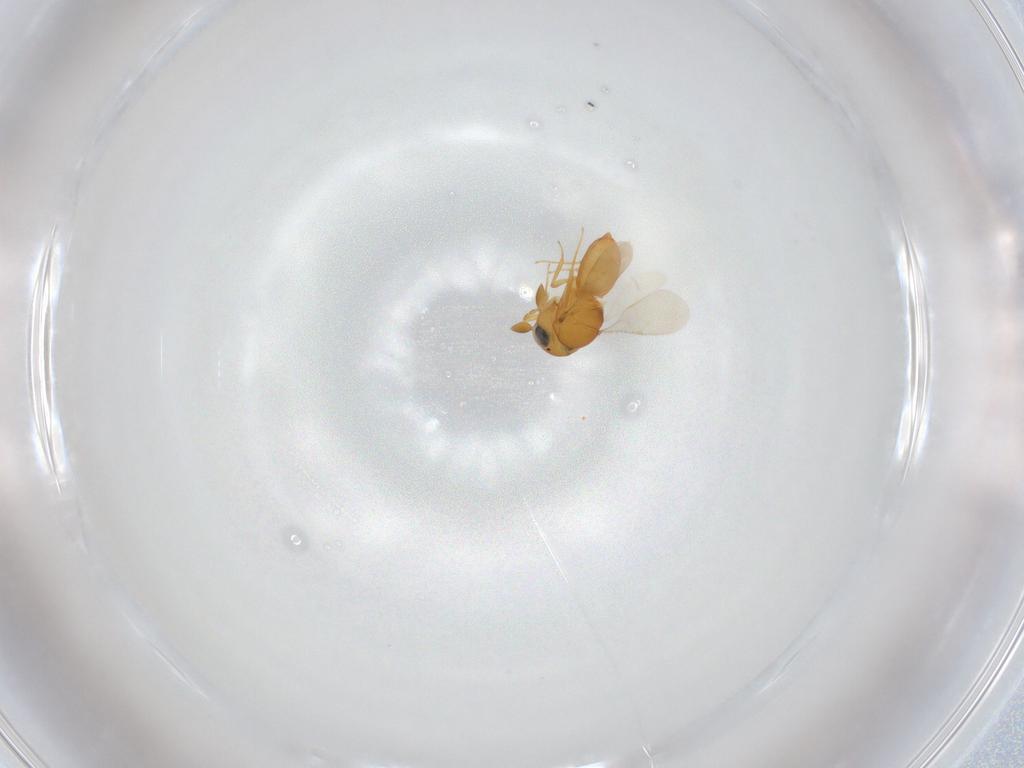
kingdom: Animalia
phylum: Arthropoda
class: Insecta
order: Hymenoptera
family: Scelionidae
